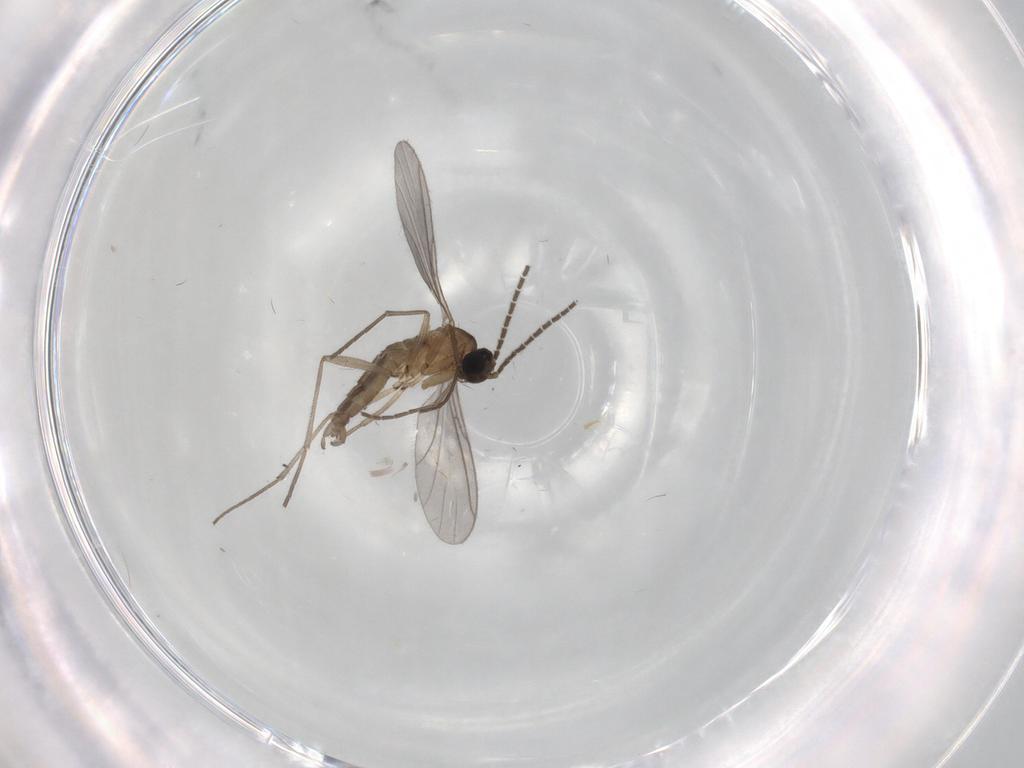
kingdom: Animalia
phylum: Arthropoda
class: Insecta
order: Diptera
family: Sciaridae
